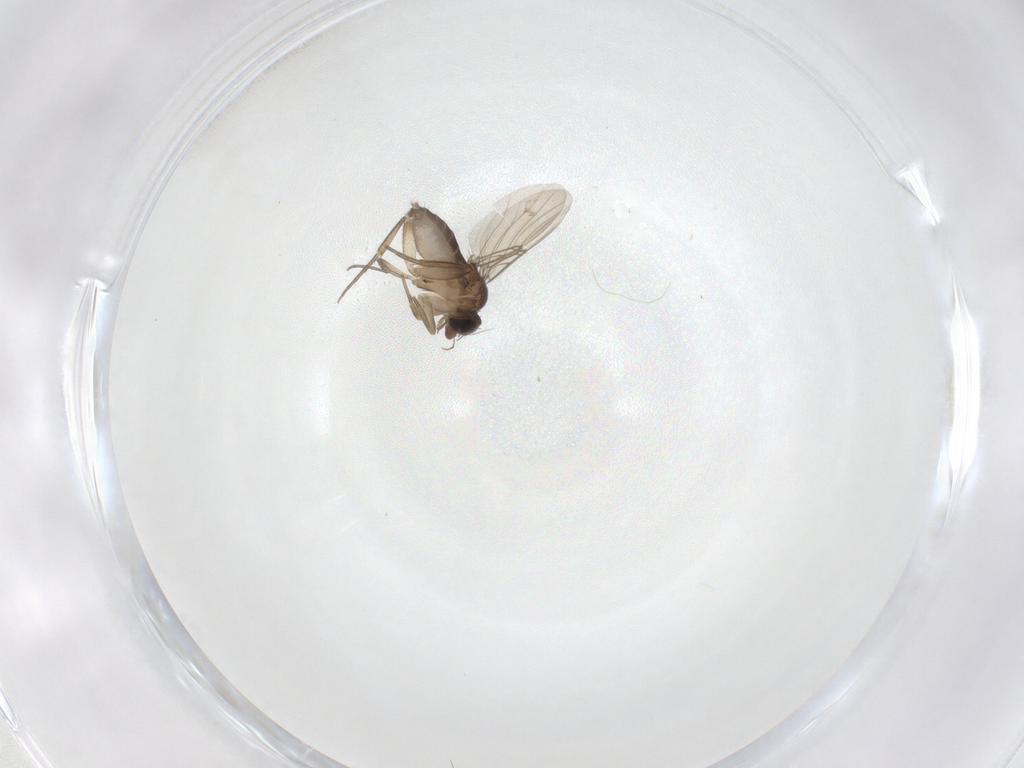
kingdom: Animalia
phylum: Arthropoda
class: Insecta
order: Diptera
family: Phoridae
